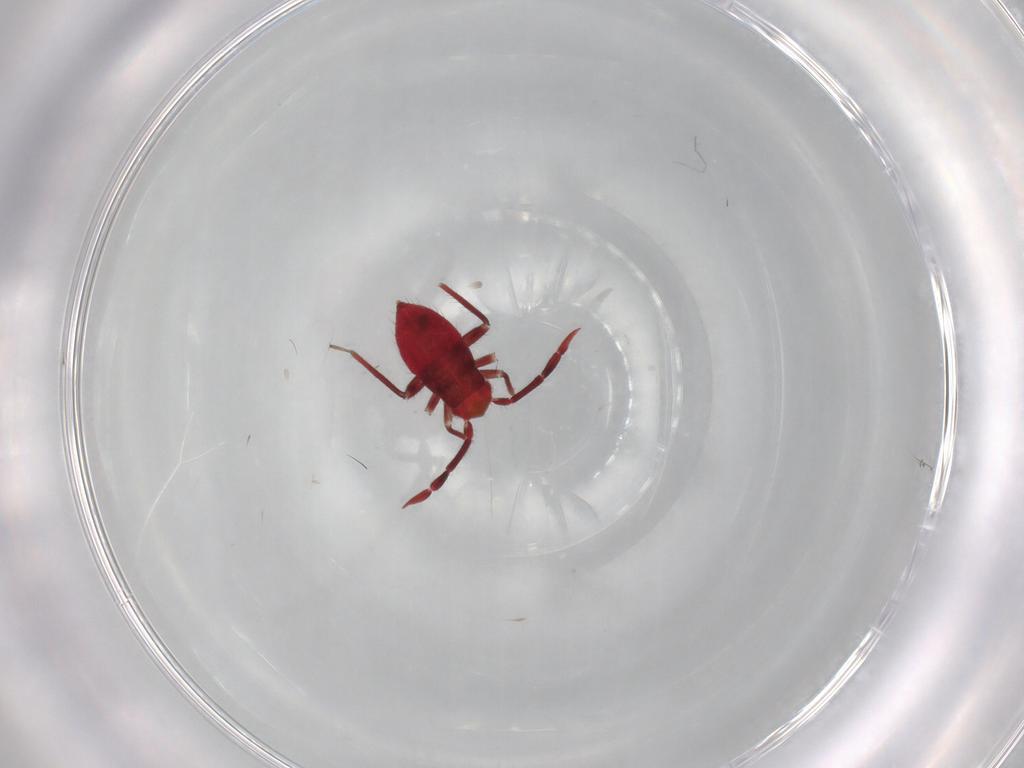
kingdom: Animalia
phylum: Arthropoda
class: Insecta
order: Hemiptera
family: Miridae
